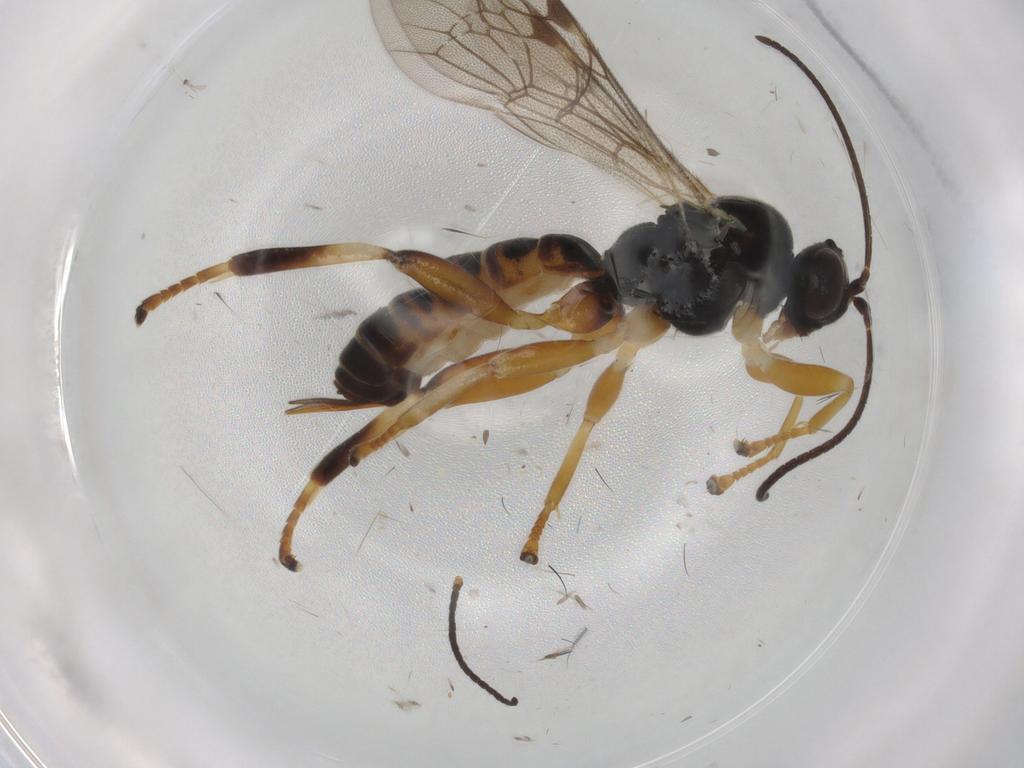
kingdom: Animalia
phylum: Arthropoda
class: Insecta
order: Hymenoptera
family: Ichneumonidae
